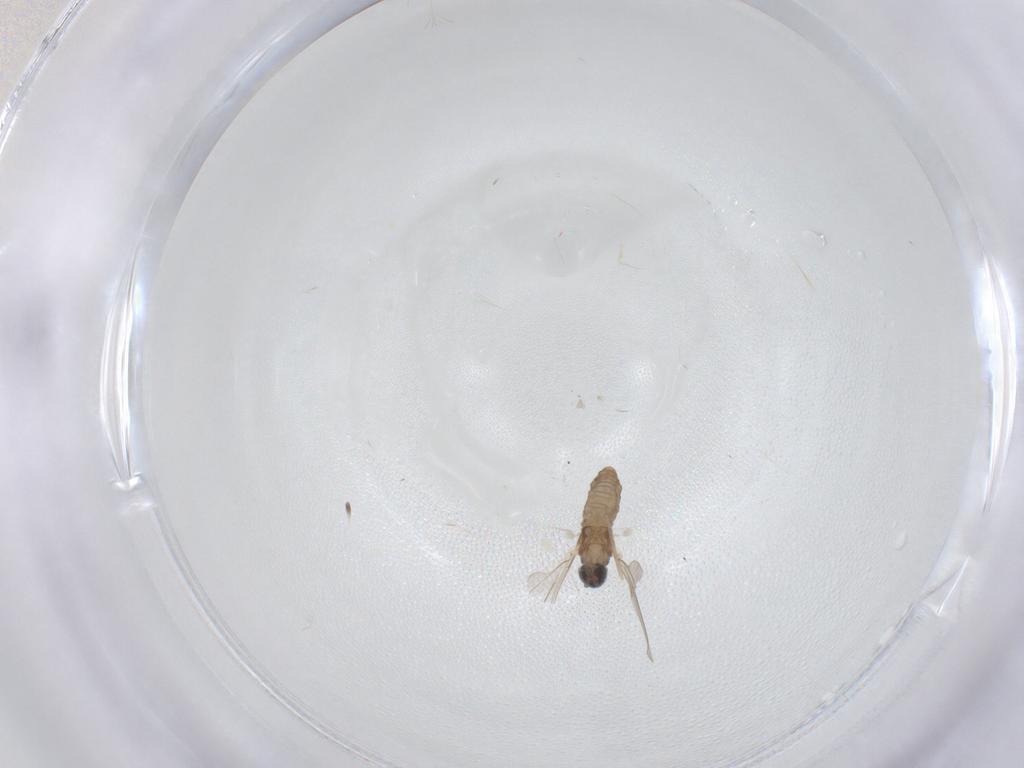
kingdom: Animalia
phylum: Arthropoda
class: Insecta
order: Diptera
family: Cecidomyiidae
